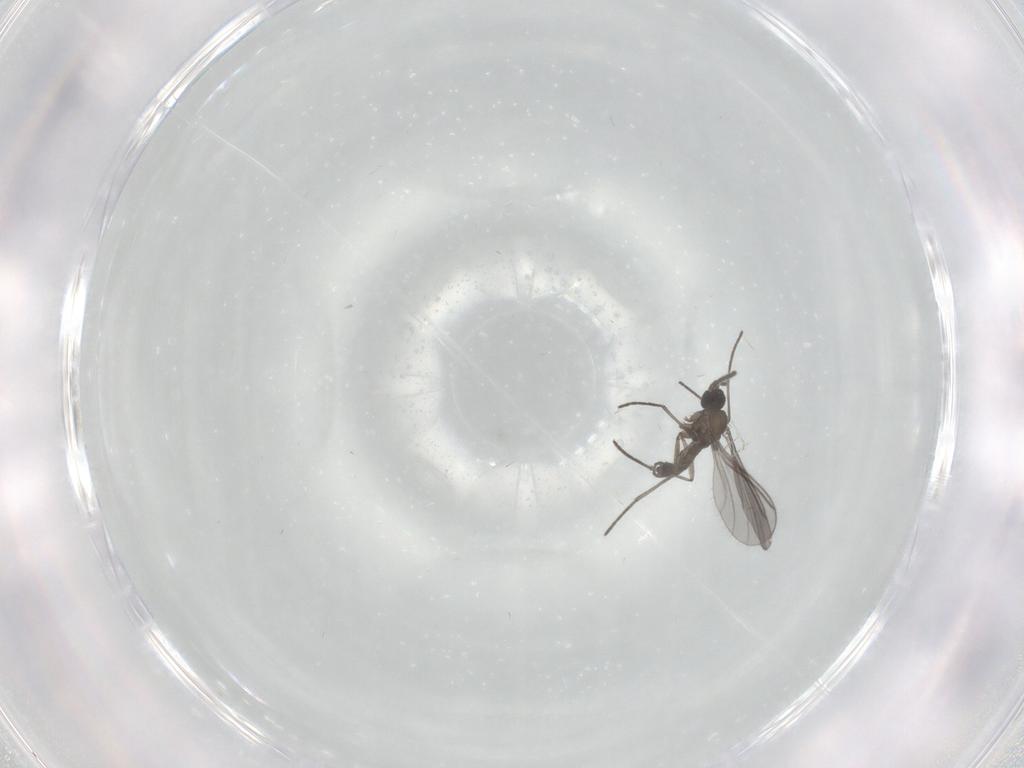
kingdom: Animalia
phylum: Arthropoda
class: Insecta
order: Diptera
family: Sciaridae
